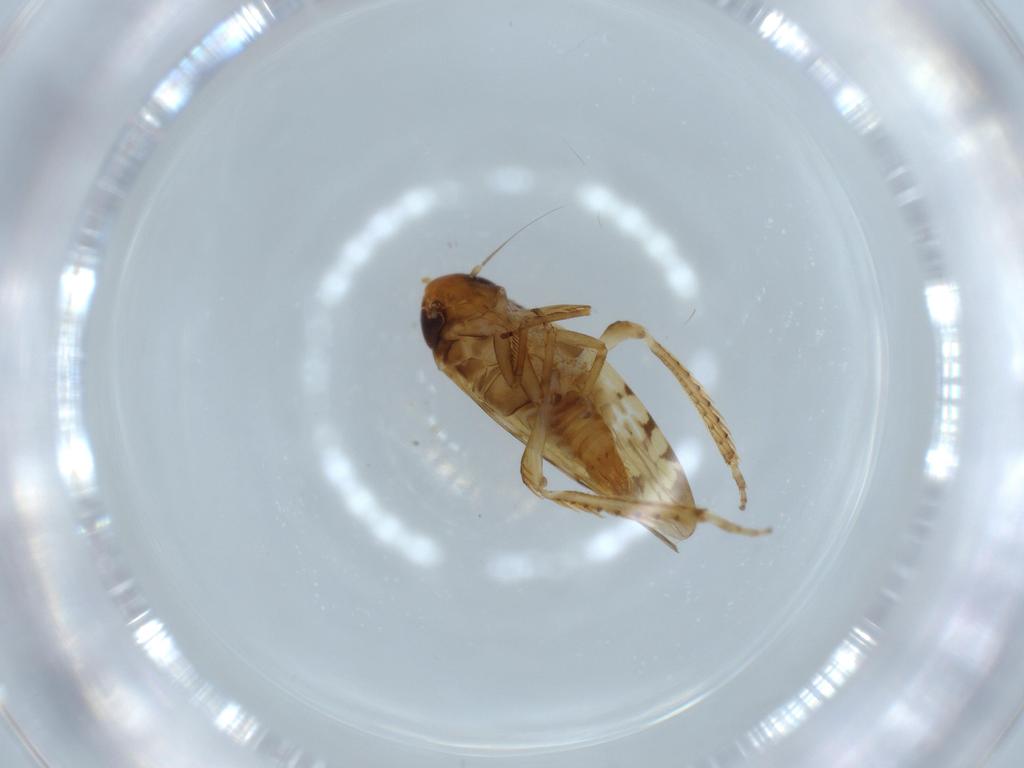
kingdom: Animalia
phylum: Arthropoda
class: Insecta
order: Hemiptera
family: Cicadellidae
